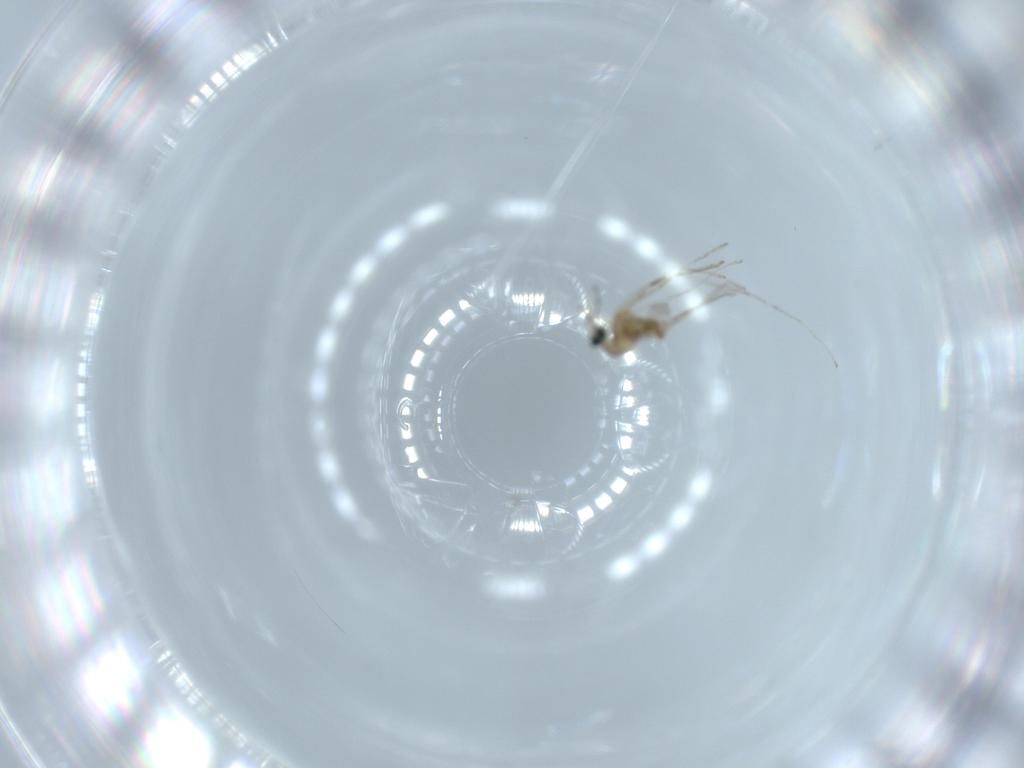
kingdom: Animalia
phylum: Arthropoda
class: Insecta
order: Diptera
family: Cecidomyiidae
